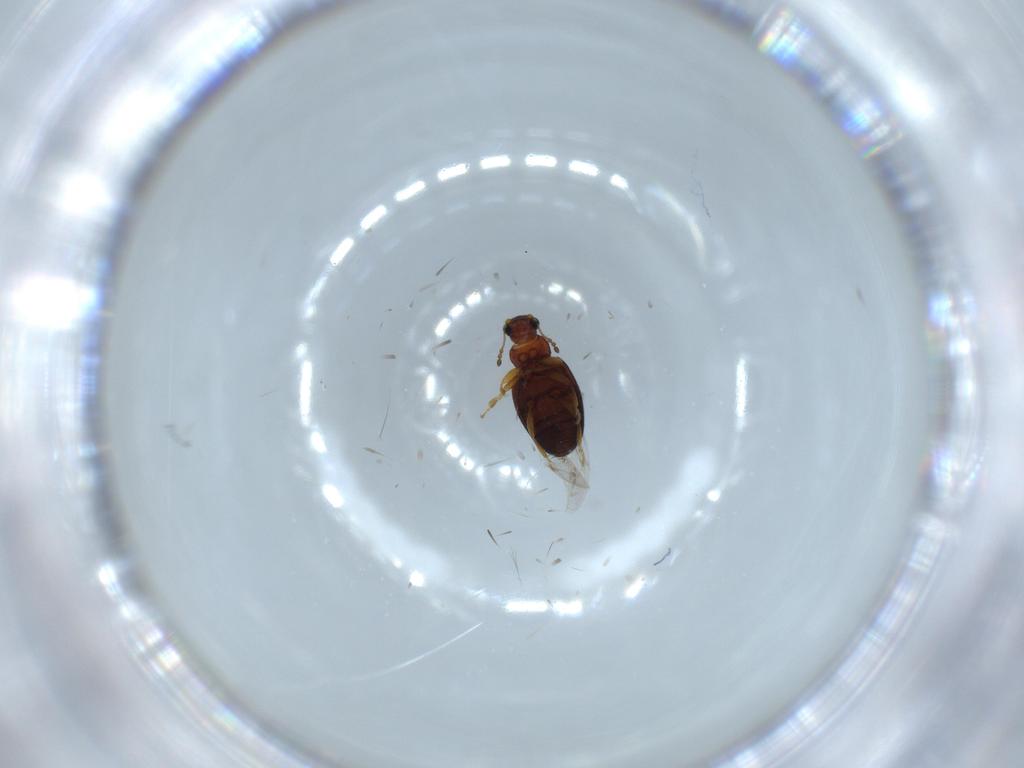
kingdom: Animalia
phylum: Arthropoda
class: Insecta
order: Coleoptera
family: Latridiidae
